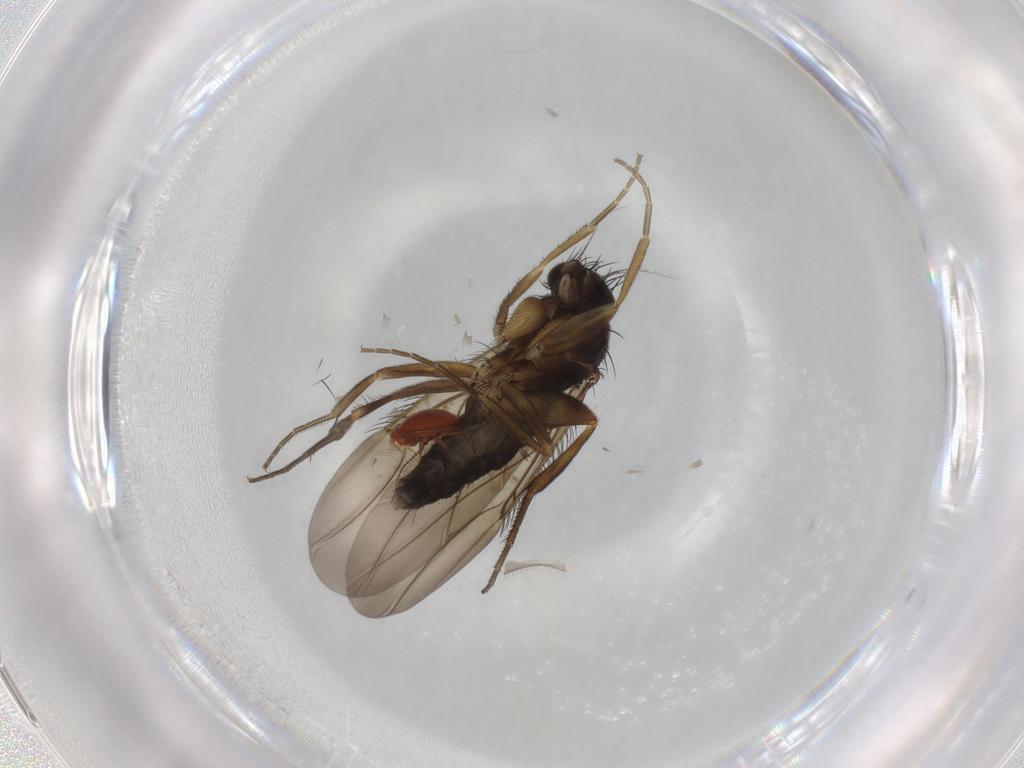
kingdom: Animalia
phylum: Arthropoda
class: Insecta
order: Diptera
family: Phoridae
